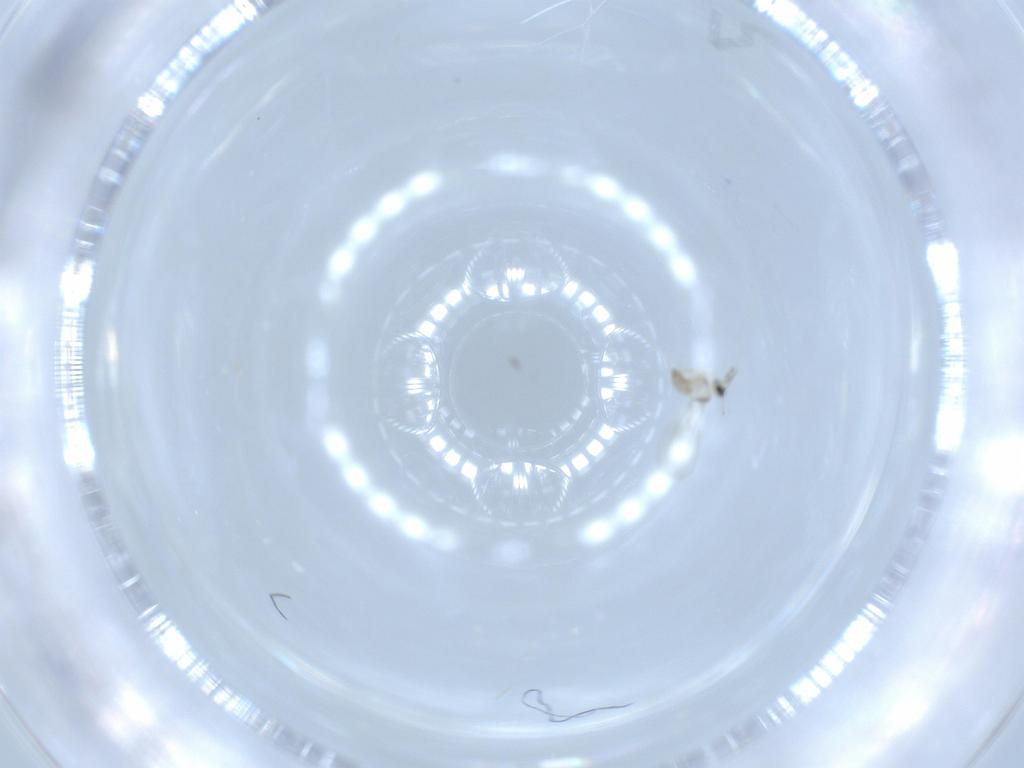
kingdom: Animalia
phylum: Arthropoda
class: Insecta
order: Diptera
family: Cecidomyiidae
